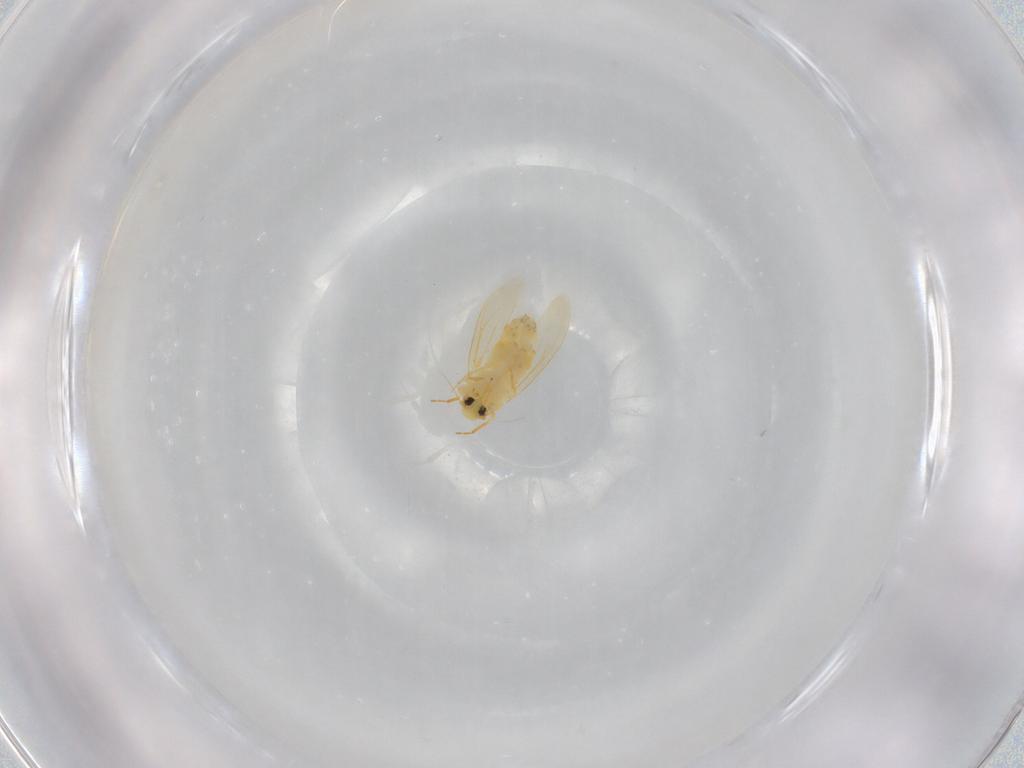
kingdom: Animalia
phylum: Arthropoda
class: Insecta
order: Hemiptera
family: Aleyrodidae
